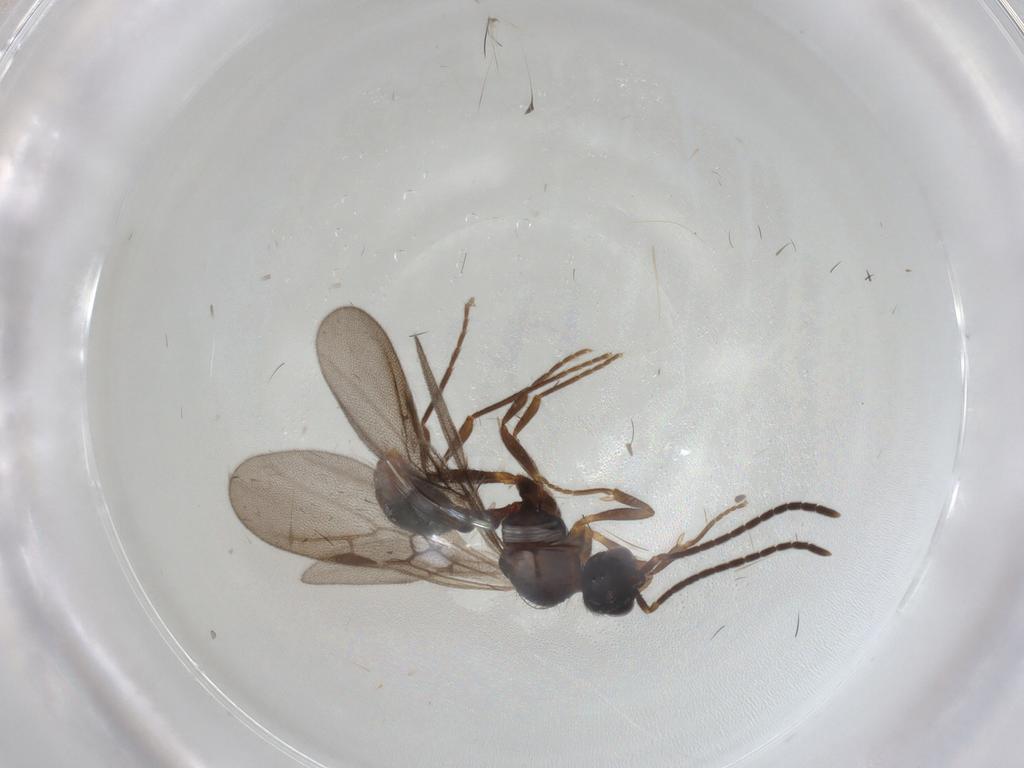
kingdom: Animalia
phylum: Arthropoda
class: Insecta
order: Hymenoptera
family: Formicidae
